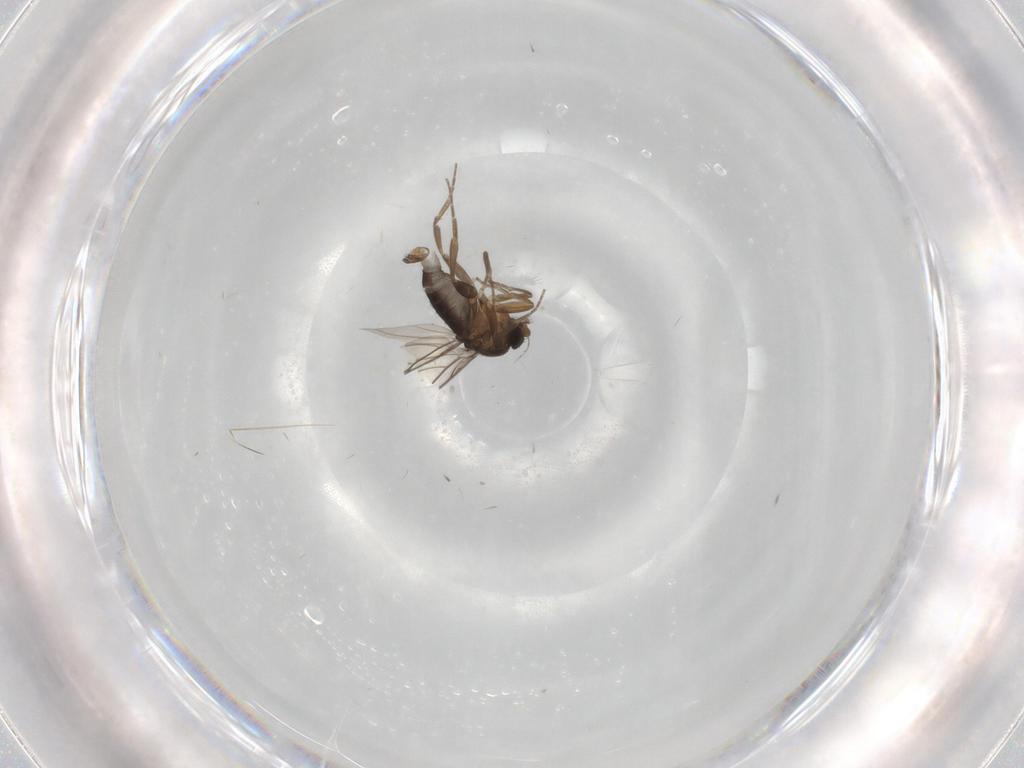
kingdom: Animalia
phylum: Arthropoda
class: Insecta
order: Diptera
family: Phoridae
